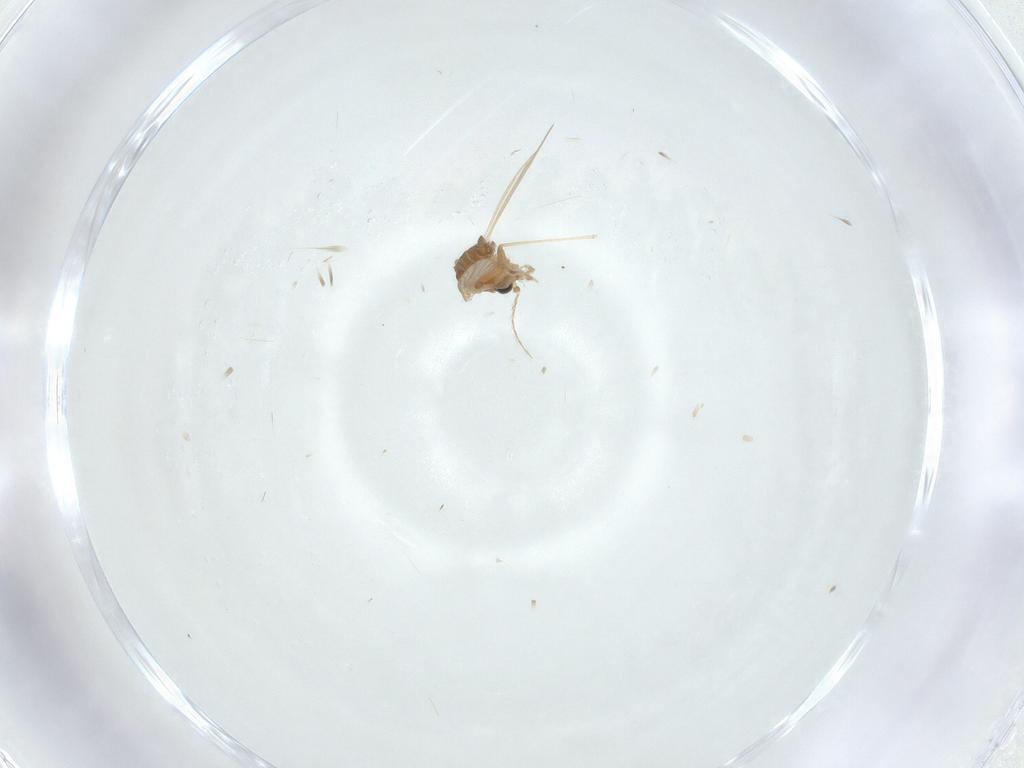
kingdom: Animalia
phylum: Arthropoda
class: Insecta
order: Diptera
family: Psychodidae
